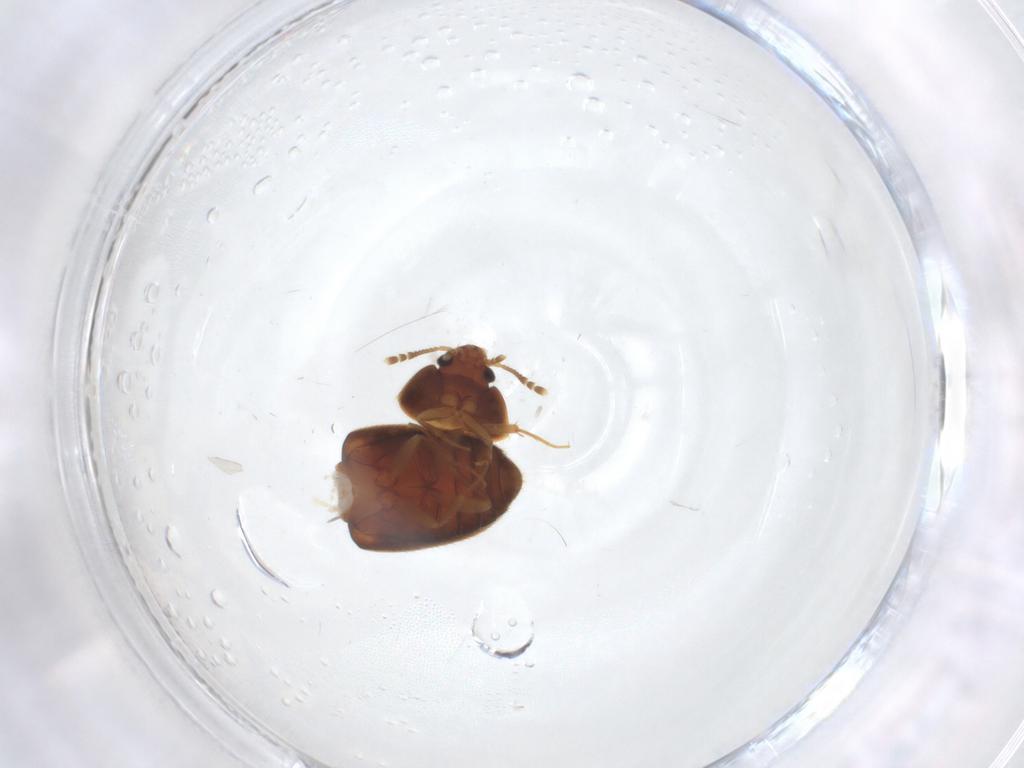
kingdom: Animalia
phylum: Arthropoda
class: Insecta
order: Coleoptera
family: Mycetophagidae
